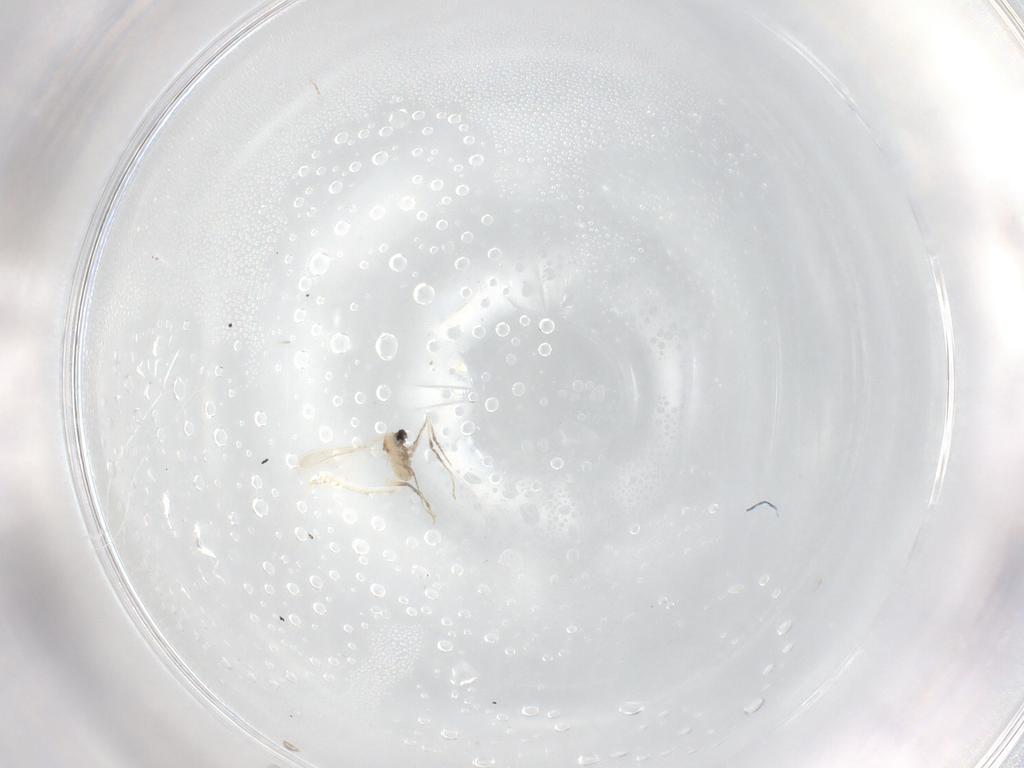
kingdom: Animalia
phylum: Arthropoda
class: Insecta
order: Diptera
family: Cecidomyiidae
